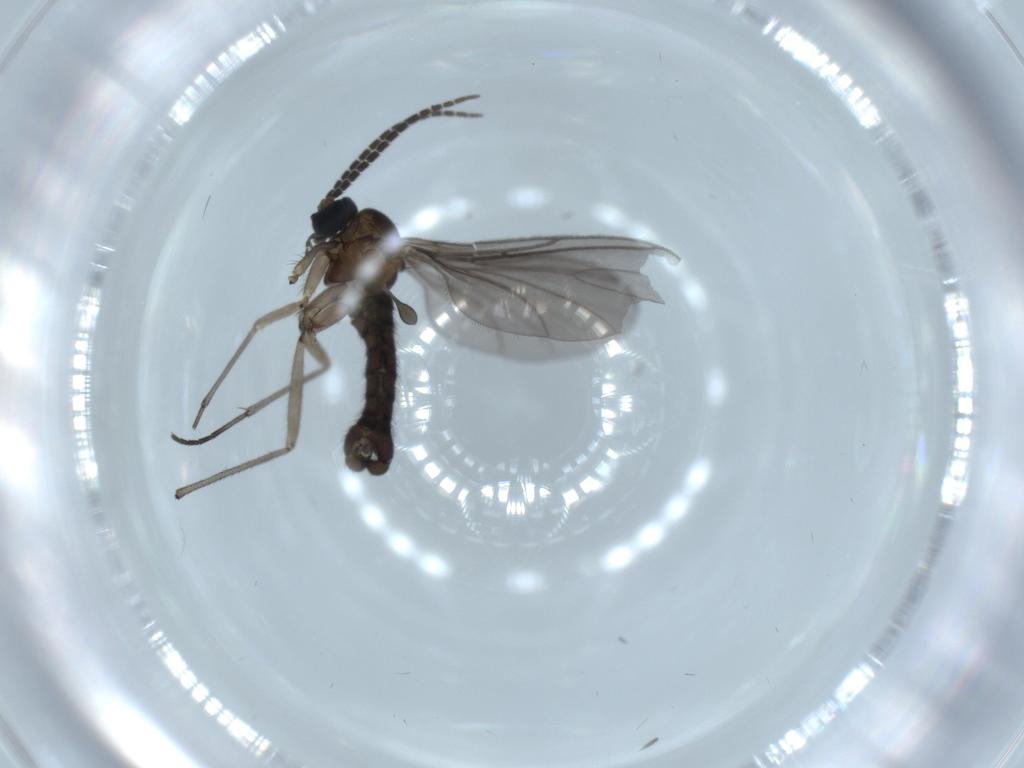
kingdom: Animalia
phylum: Arthropoda
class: Insecta
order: Diptera
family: Sciaridae
